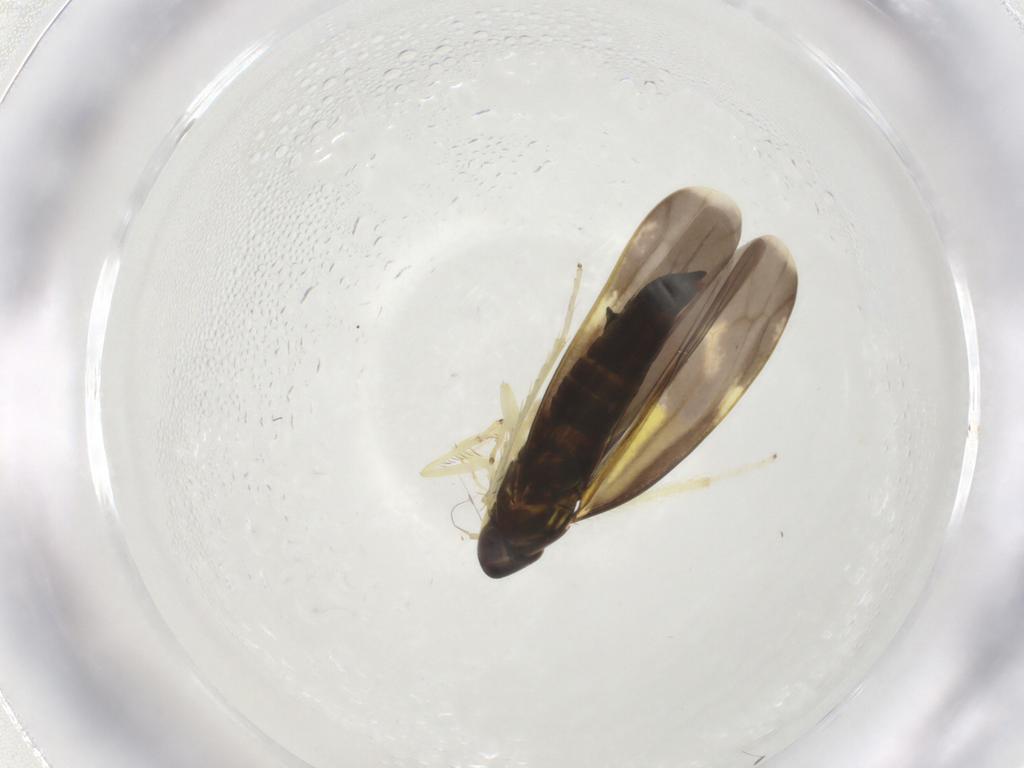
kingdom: Animalia
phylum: Arthropoda
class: Insecta
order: Hemiptera
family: Cicadellidae
